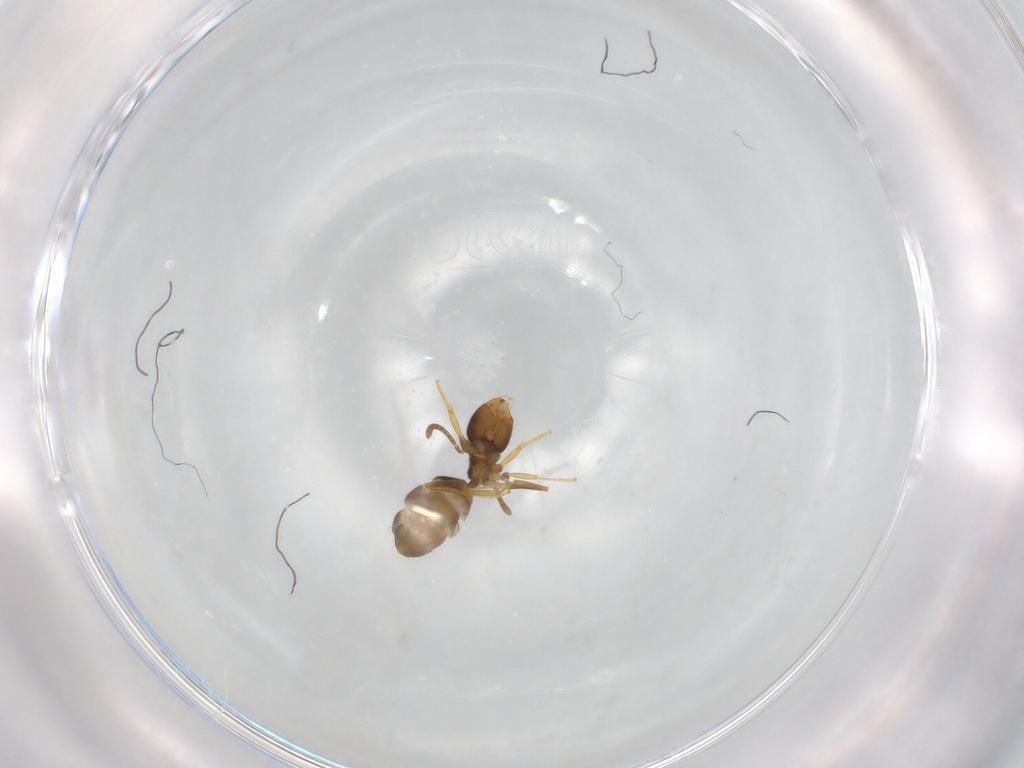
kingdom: Animalia
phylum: Arthropoda
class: Insecta
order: Hymenoptera
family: Formicidae
